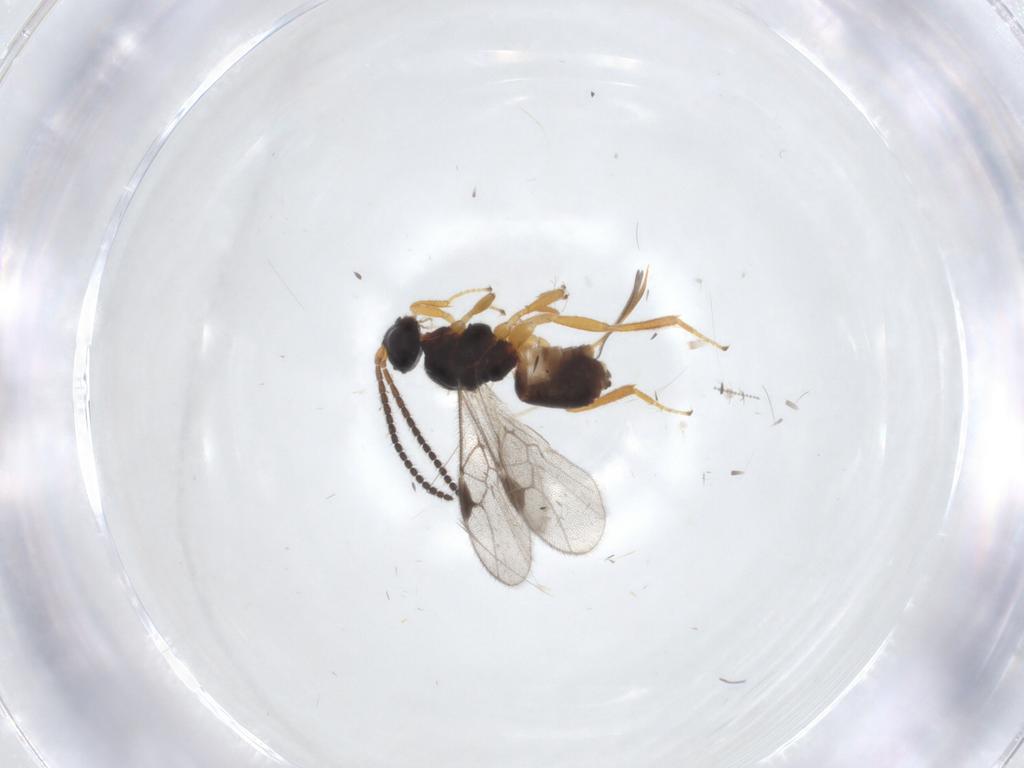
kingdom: Animalia
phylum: Arthropoda
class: Insecta
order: Hymenoptera
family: Braconidae
